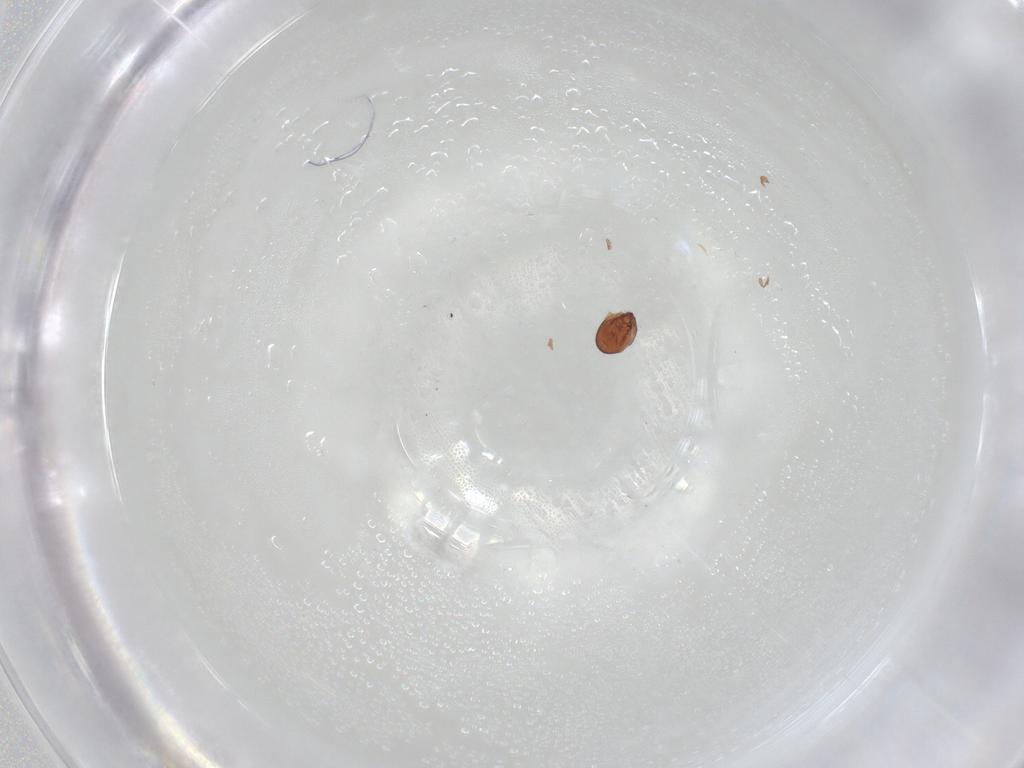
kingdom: Animalia
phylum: Arthropoda
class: Arachnida
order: Sarcoptiformes
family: Scheloribatidae
